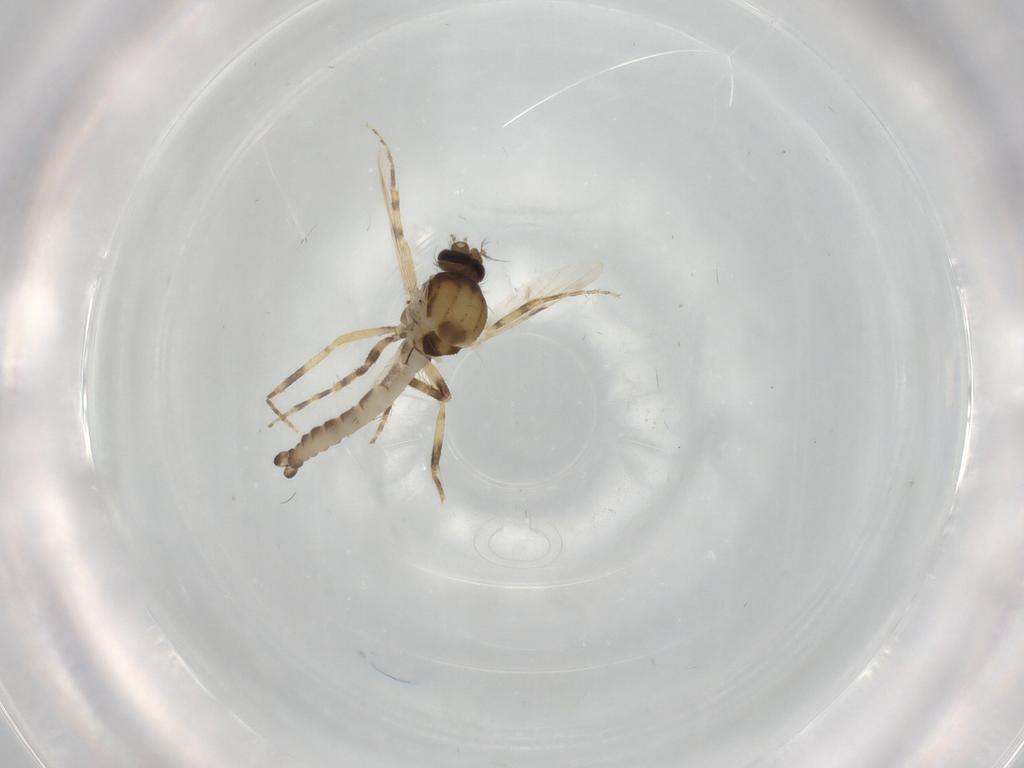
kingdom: Animalia
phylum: Arthropoda
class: Insecta
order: Diptera
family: Ceratopogonidae
